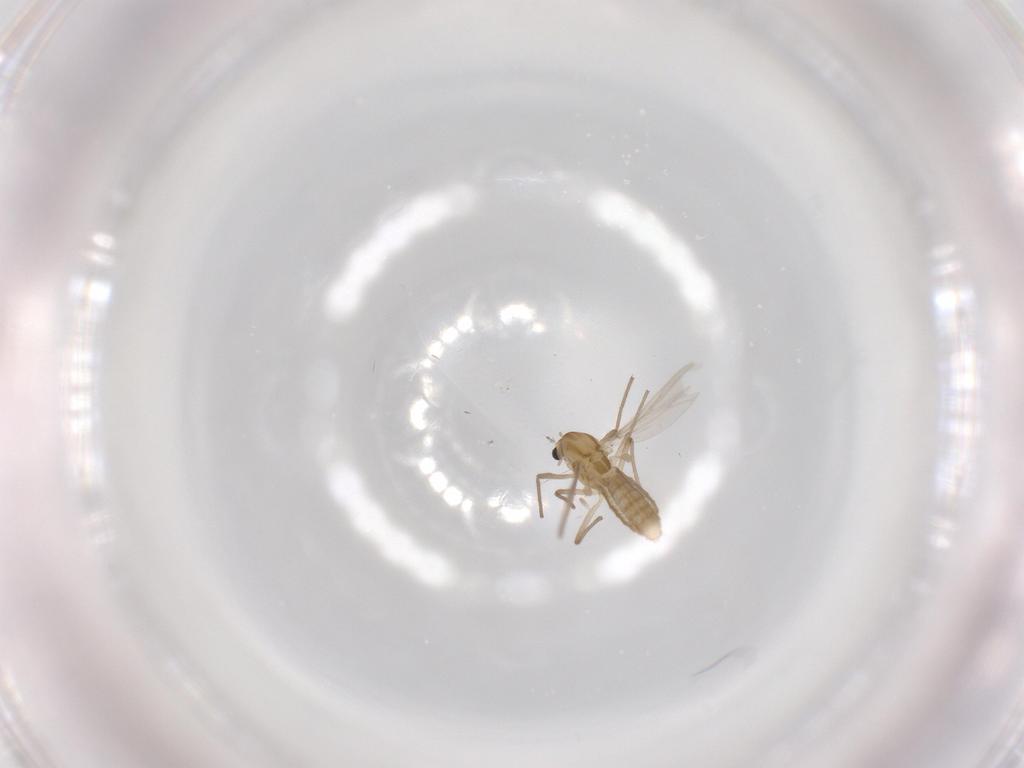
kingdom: Animalia
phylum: Arthropoda
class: Insecta
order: Diptera
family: Chironomidae
